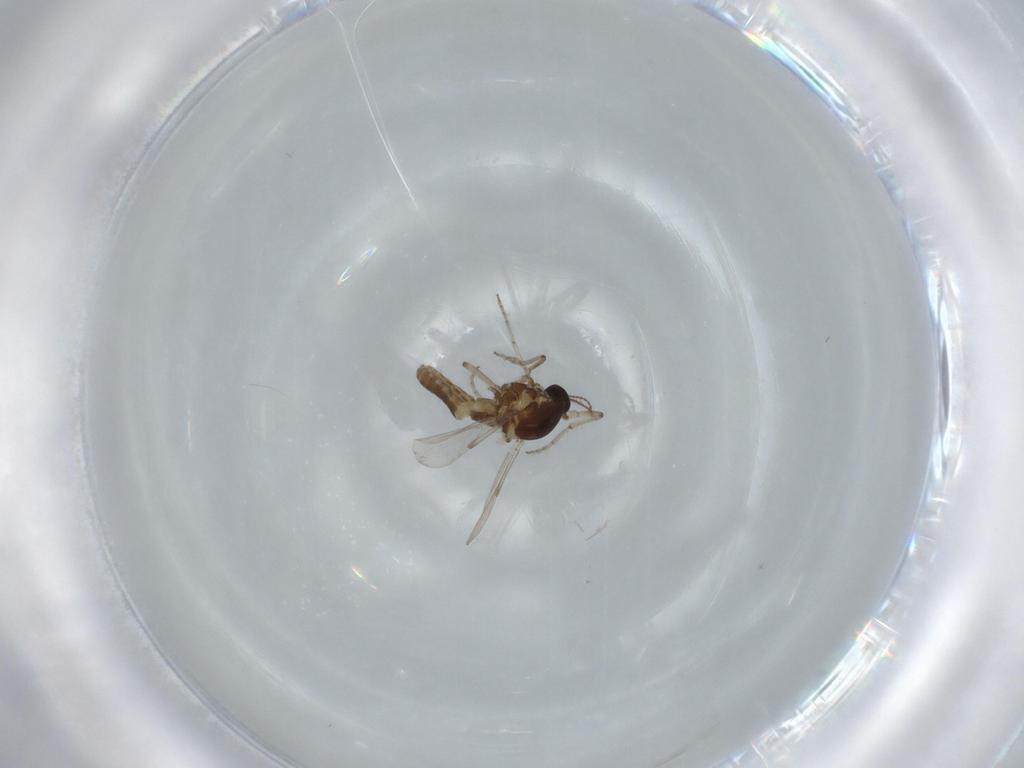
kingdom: Animalia
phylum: Arthropoda
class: Insecta
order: Diptera
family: Ceratopogonidae
